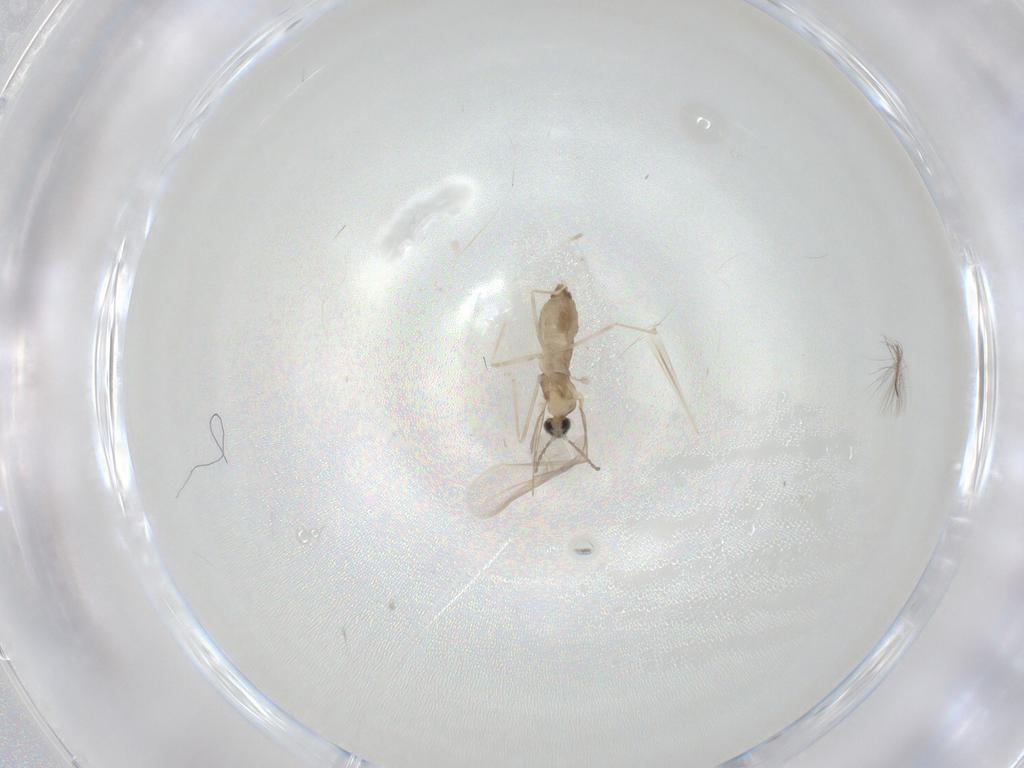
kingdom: Animalia
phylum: Arthropoda
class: Insecta
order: Diptera
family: Cecidomyiidae
